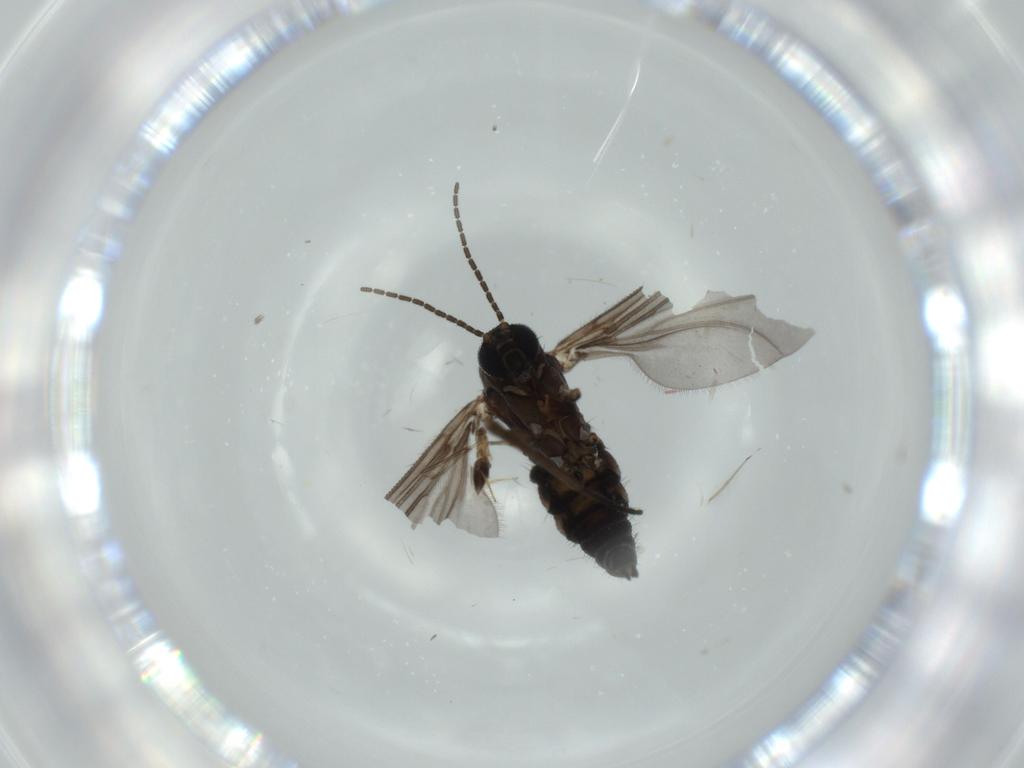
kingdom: Animalia
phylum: Arthropoda
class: Insecta
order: Diptera
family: Sciaridae
